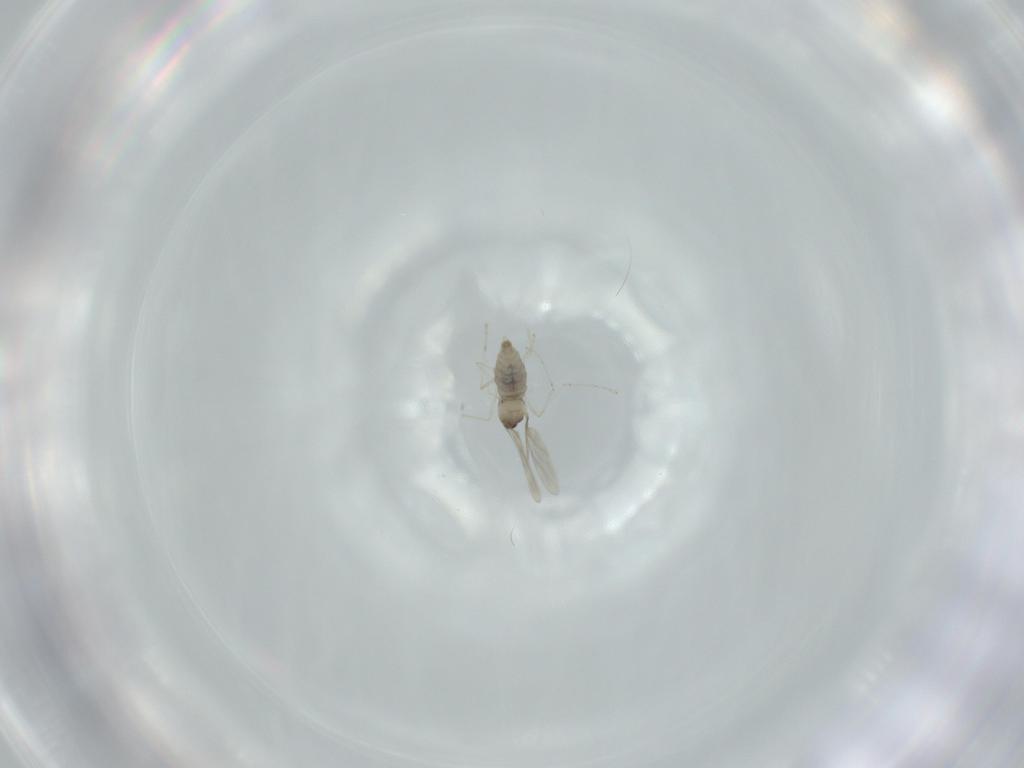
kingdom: Animalia
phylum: Arthropoda
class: Insecta
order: Diptera
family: Cecidomyiidae
